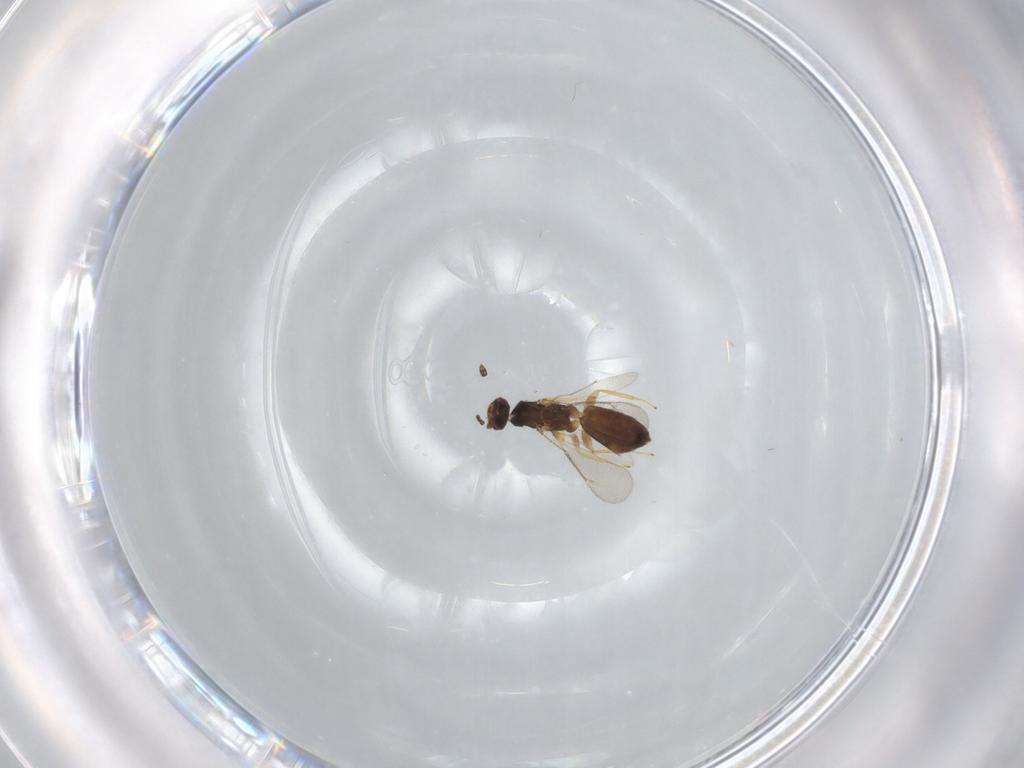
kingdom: Animalia
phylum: Arthropoda
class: Insecta
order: Hymenoptera
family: Eulophidae
